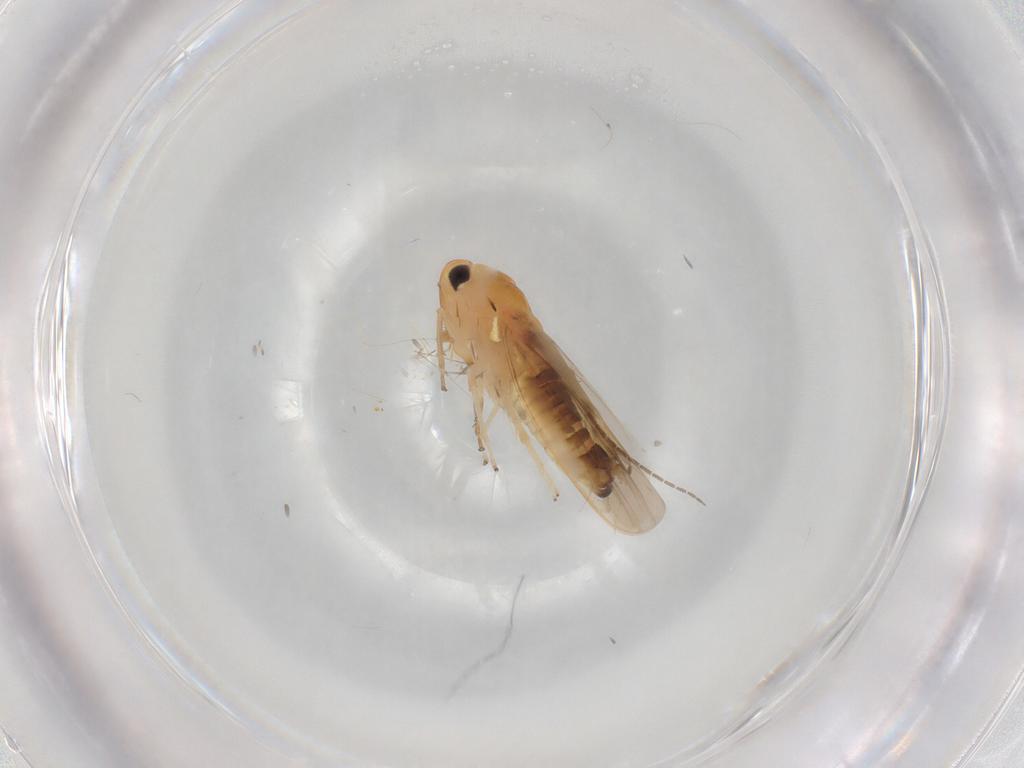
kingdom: Animalia
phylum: Arthropoda
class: Insecta
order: Hemiptera
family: Cicadellidae
